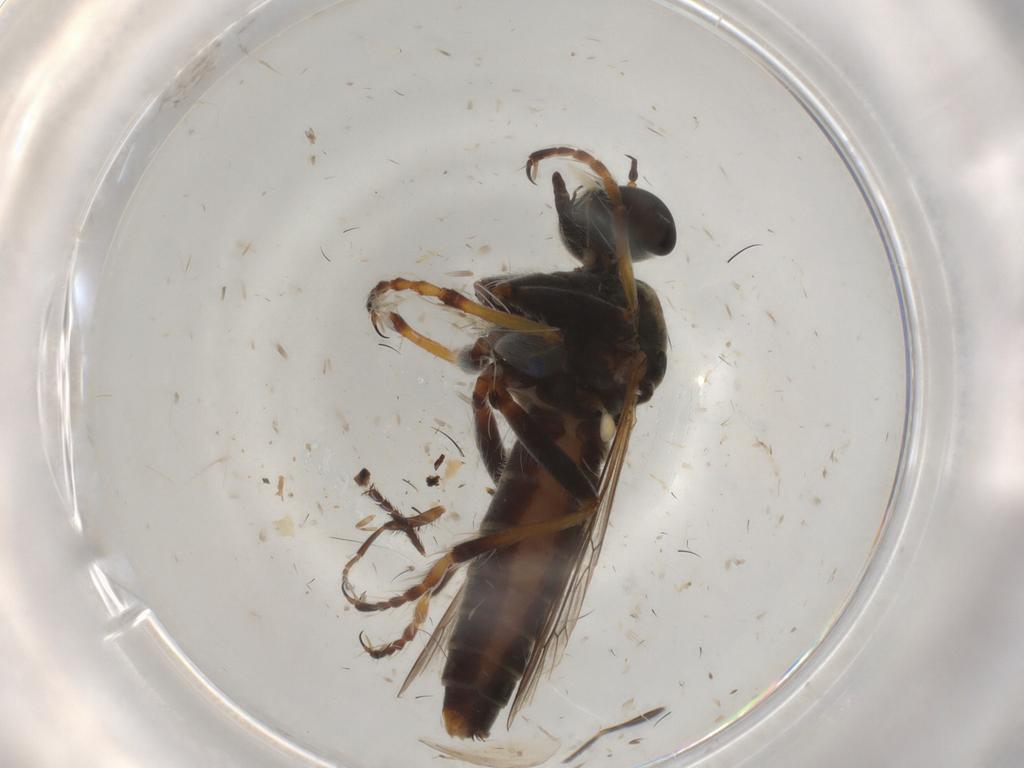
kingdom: Animalia
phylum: Arthropoda
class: Insecta
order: Diptera
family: Asilidae
